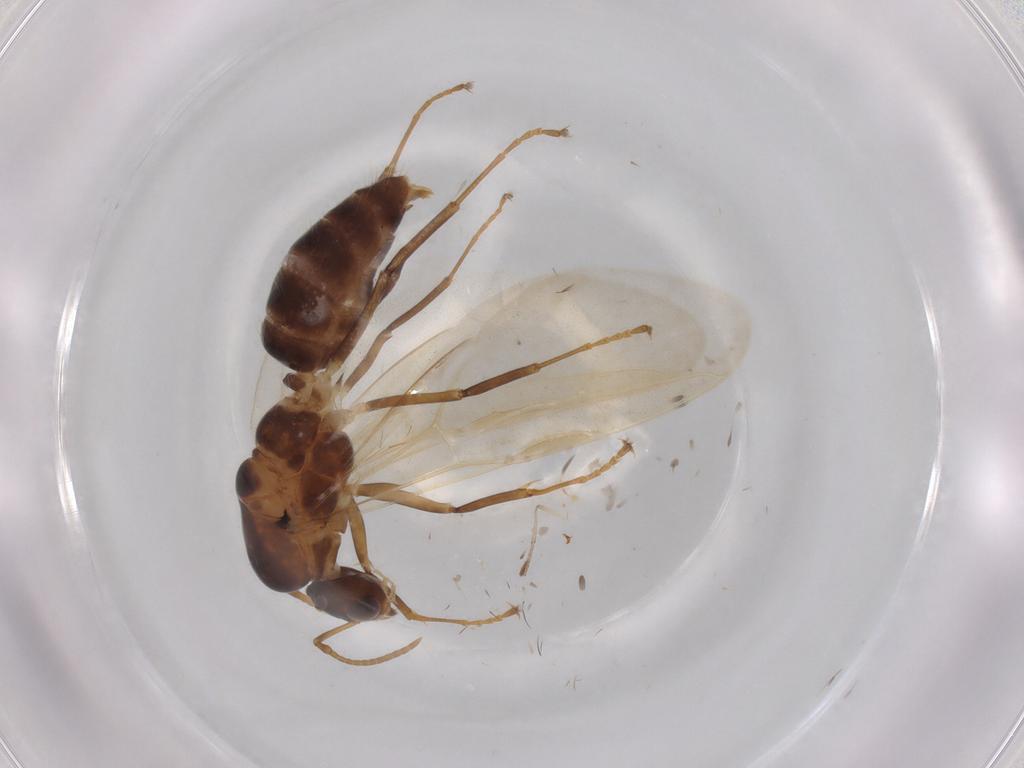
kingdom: Animalia
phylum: Arthropoda
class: Insecta
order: Hymenoptera
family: Formicidae
